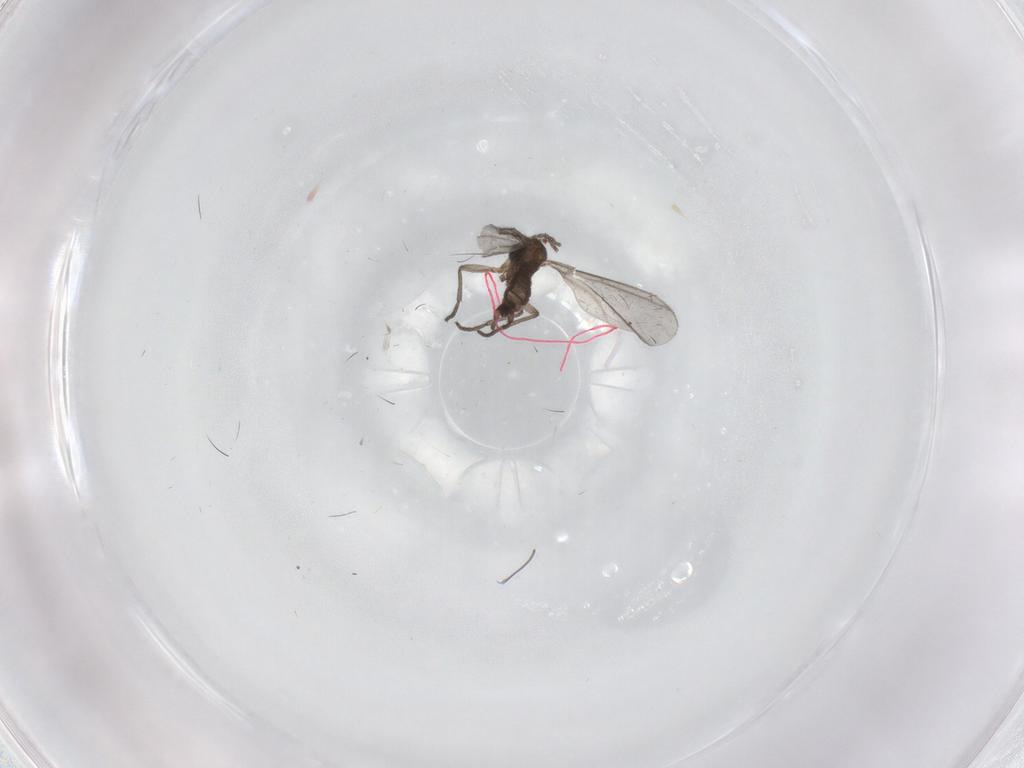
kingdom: Animalia
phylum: Arthropoda
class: Insecta
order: Diptera
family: Sciaridae
